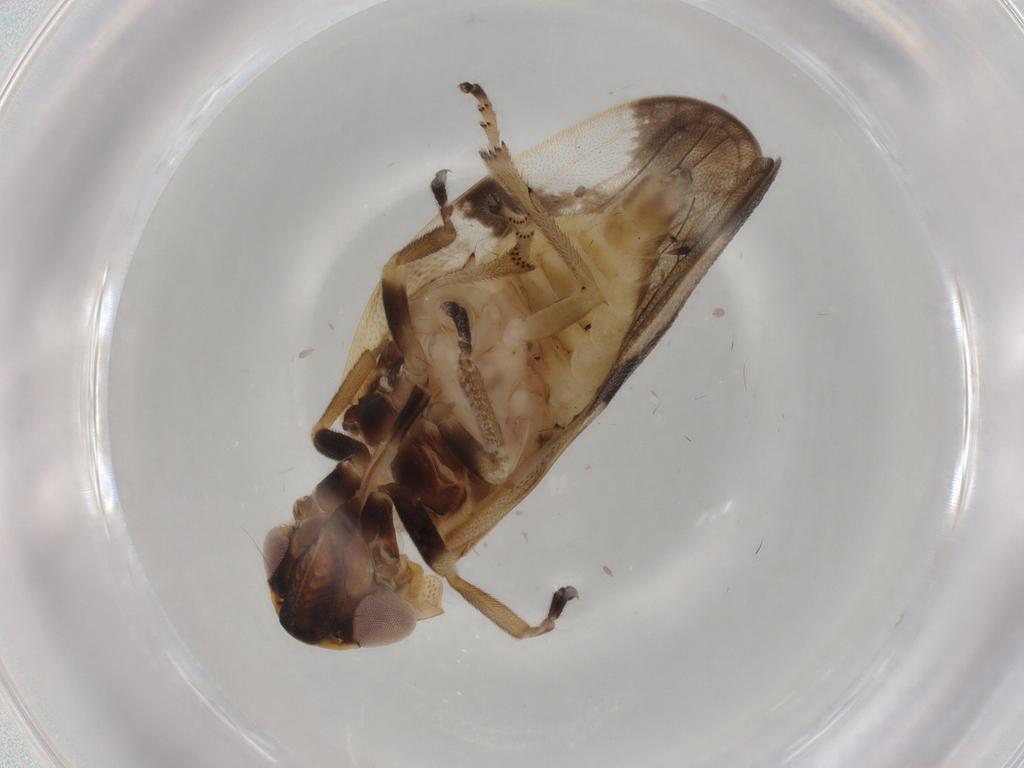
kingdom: Animalia
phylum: Arthropoda
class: Insecta
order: Hemiptera
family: Aphrophoridae
